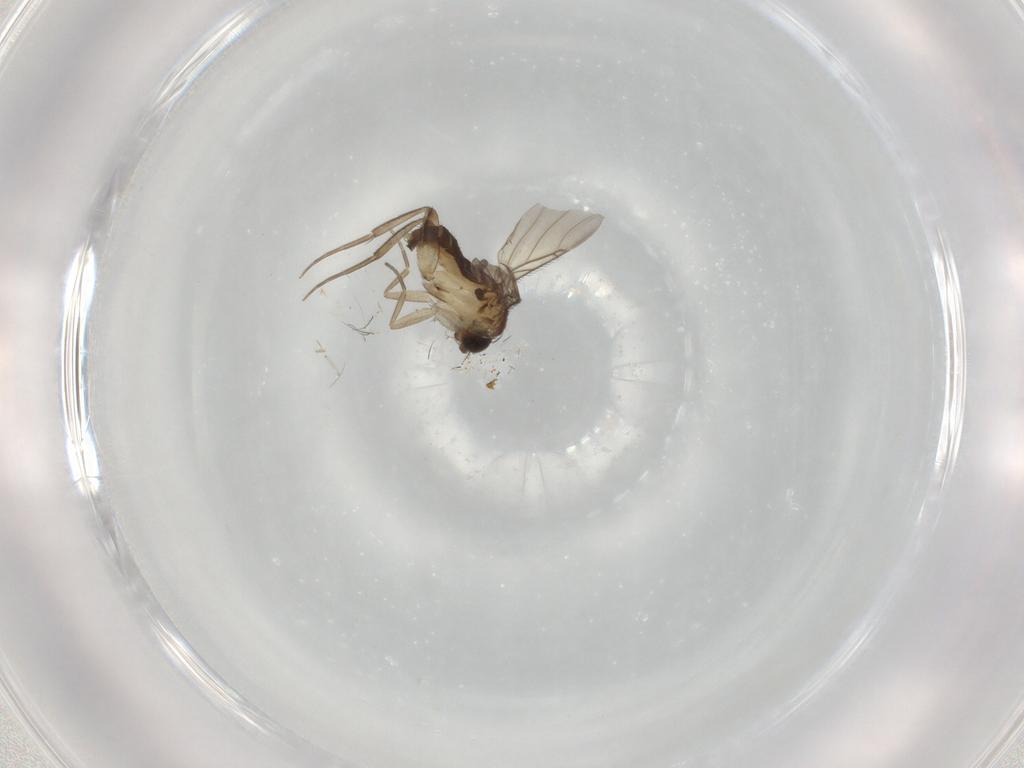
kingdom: Animalia
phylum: Arthropoda
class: Insecta
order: Diptera
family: Phoridae
